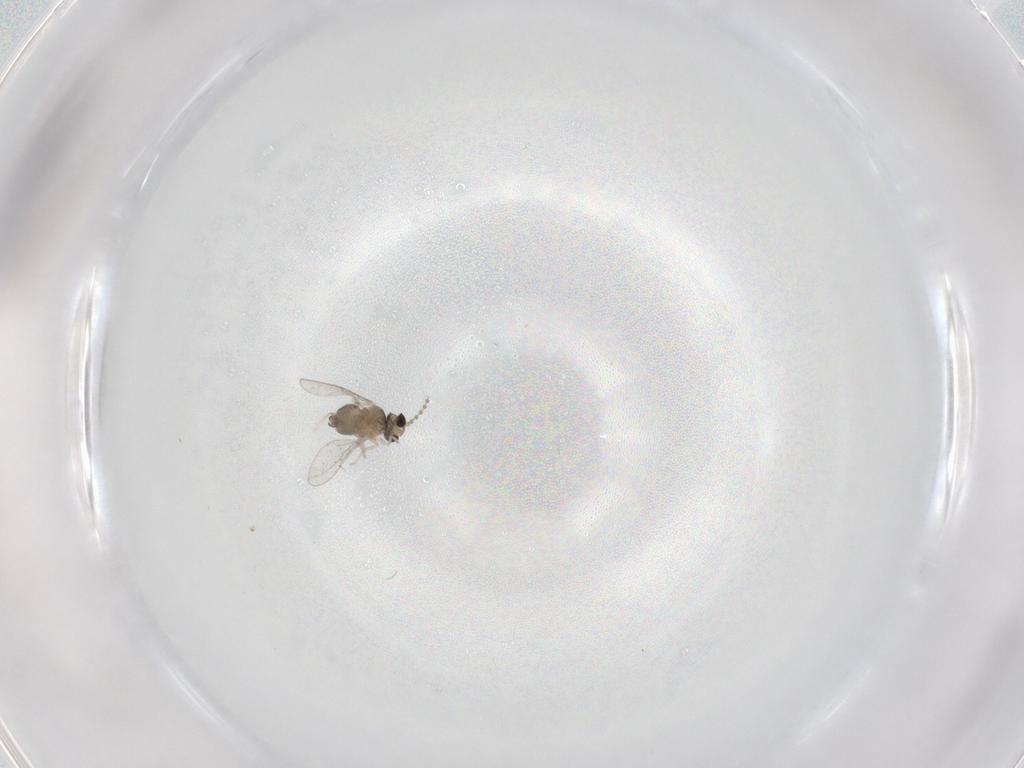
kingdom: Animalia
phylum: Arthropoda
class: Insecta
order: Diptera
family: Cecidomyiidae
